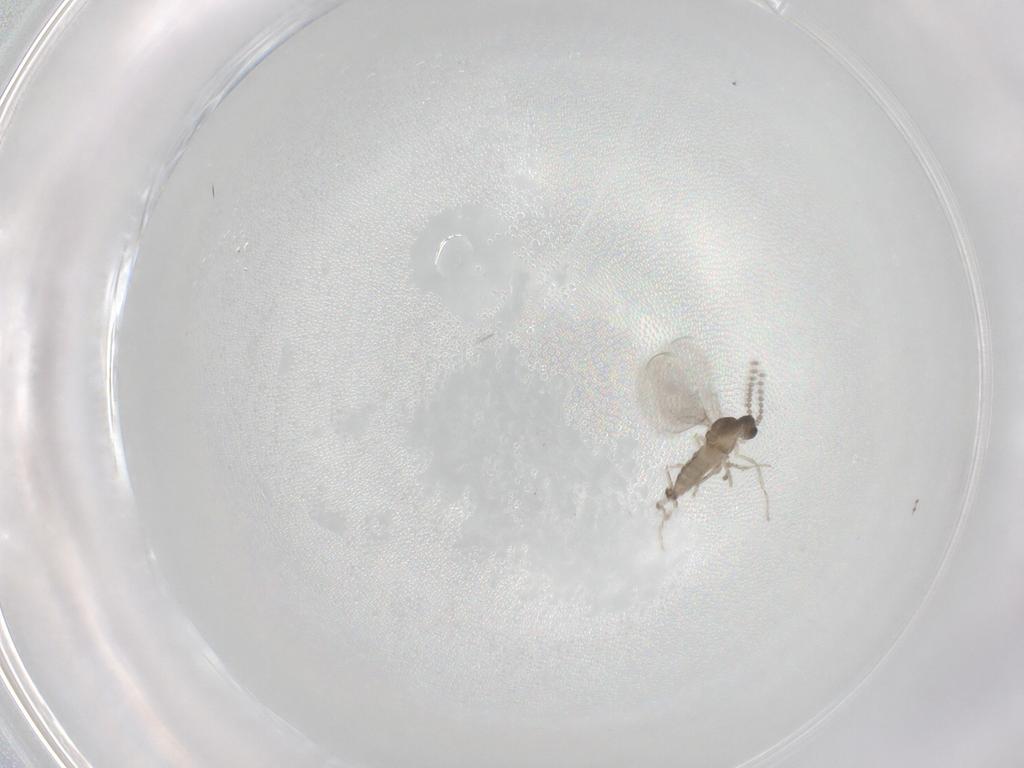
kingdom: Animalia
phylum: Arthropoda
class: Insecta
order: Diptera
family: Cecidomyiidae
